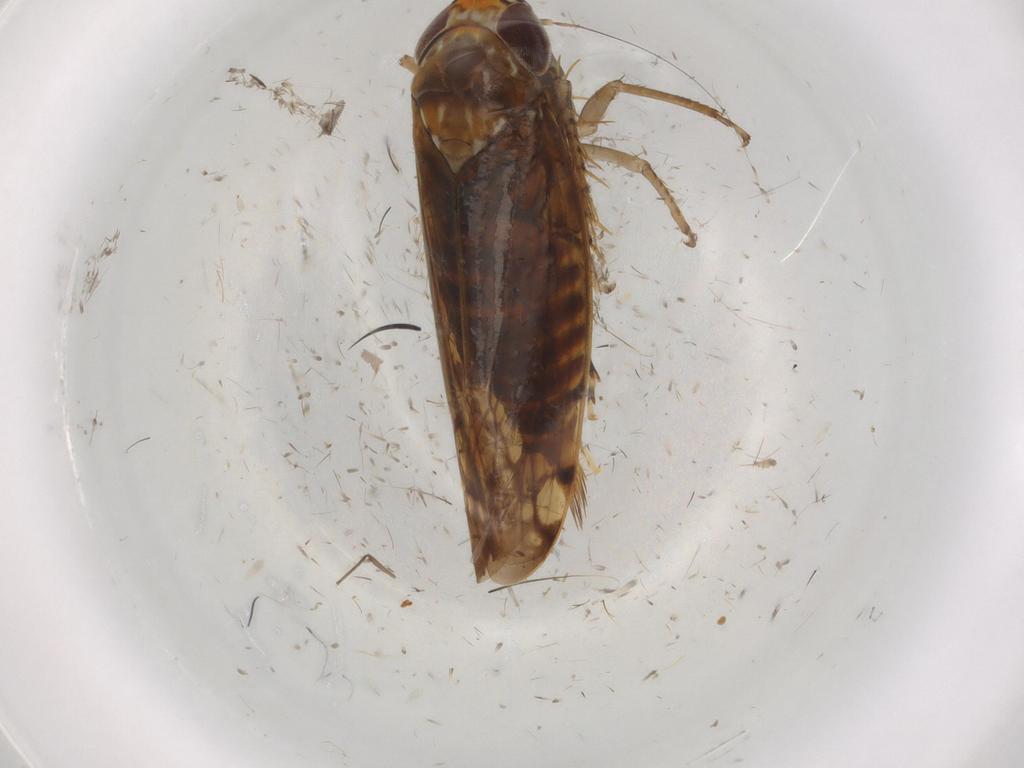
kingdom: Animalia
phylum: Arthropoda
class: Insecta
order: Hemiptera
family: Cicadellidae
